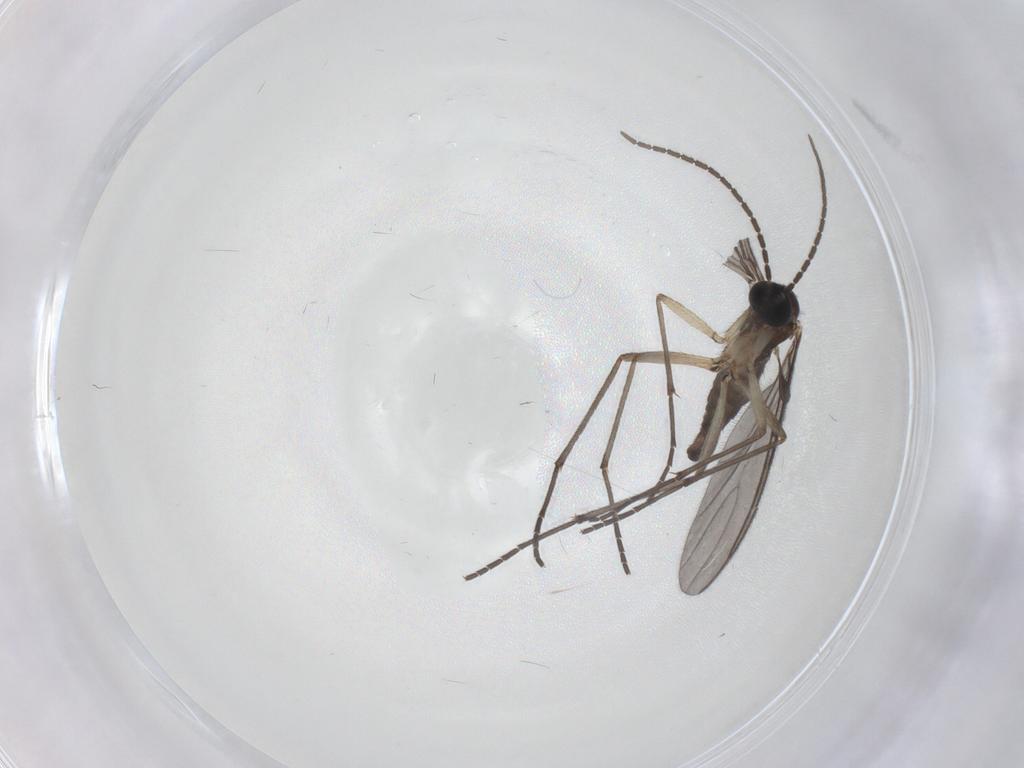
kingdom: Animalia
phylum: Arthropoda
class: Insecta
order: Diptera
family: Sciaridae
